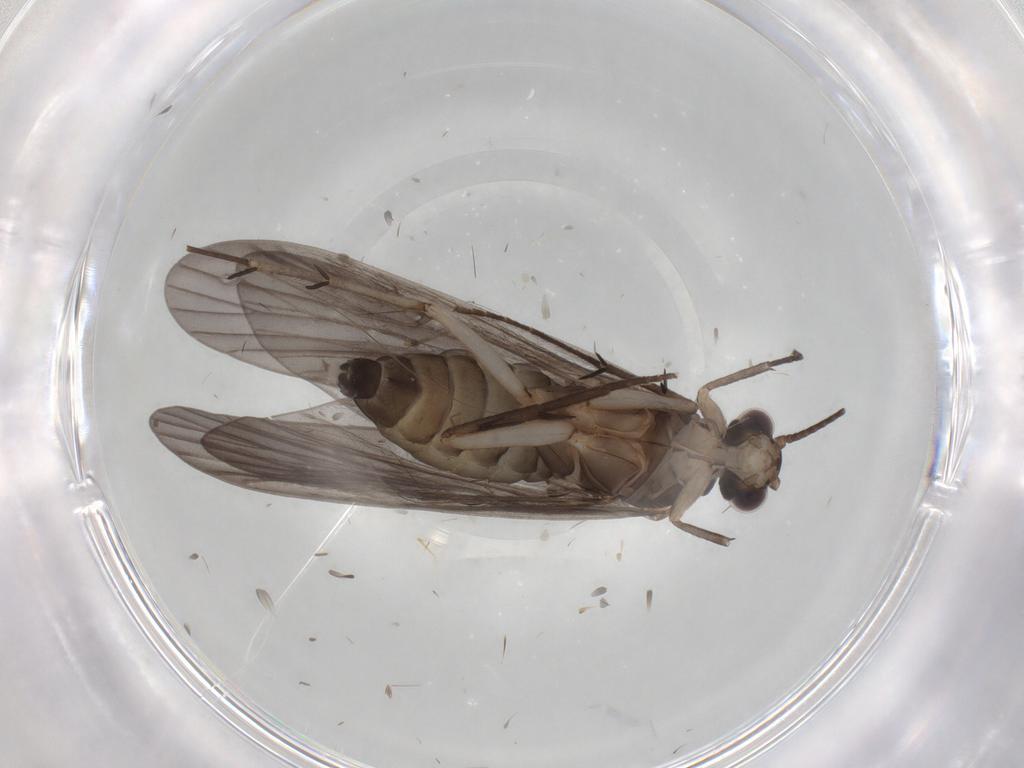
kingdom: Animalia
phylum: Arthropoda
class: Insecta
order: Trichoptera
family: Philopotamidae
